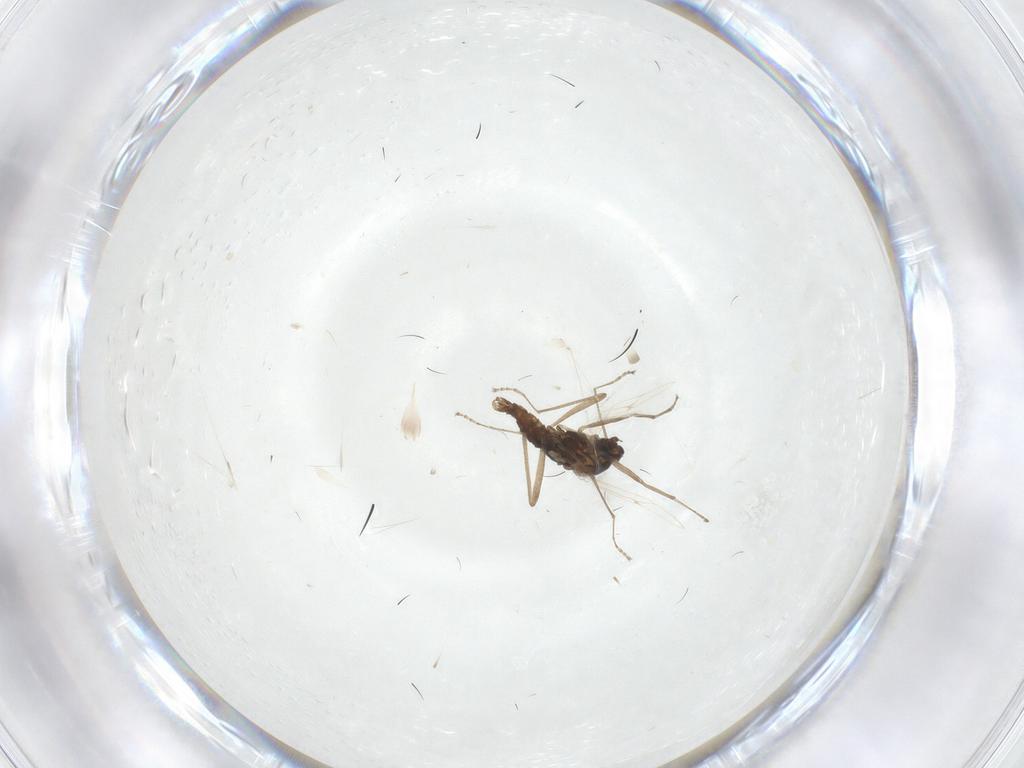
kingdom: Animalia
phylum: Arthropoda
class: Insecta
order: Diptera
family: Cecidomyiidae
